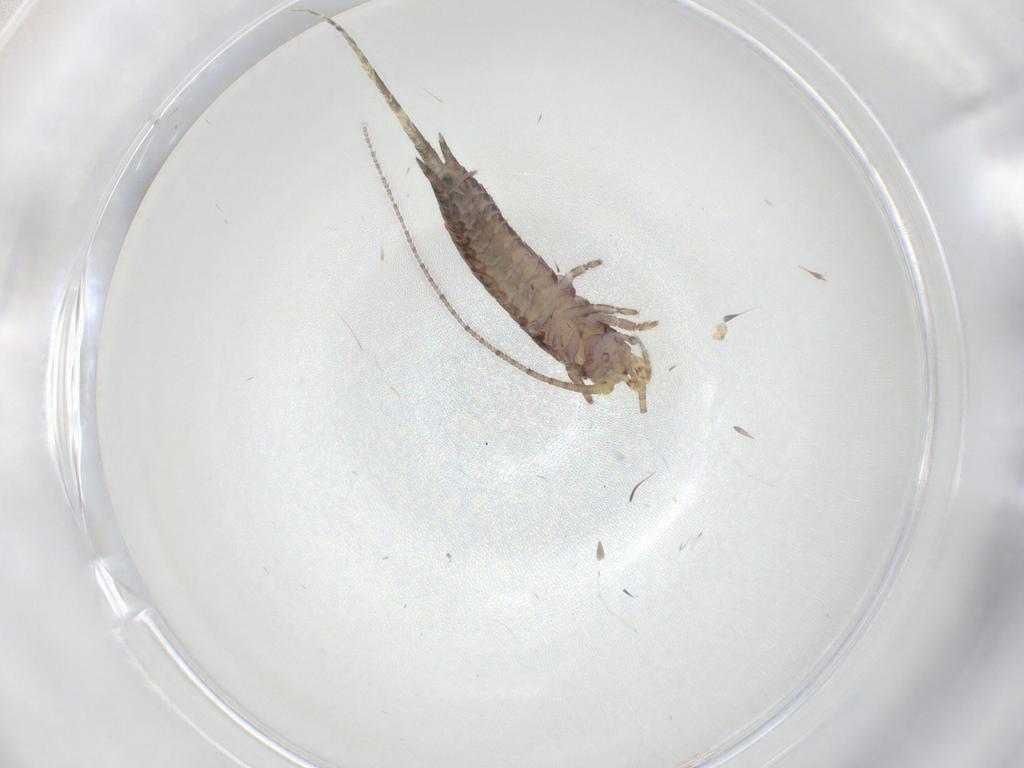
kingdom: Animalia
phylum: Arthropoda
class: Insecta
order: Archaeognatha
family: Machilidae
